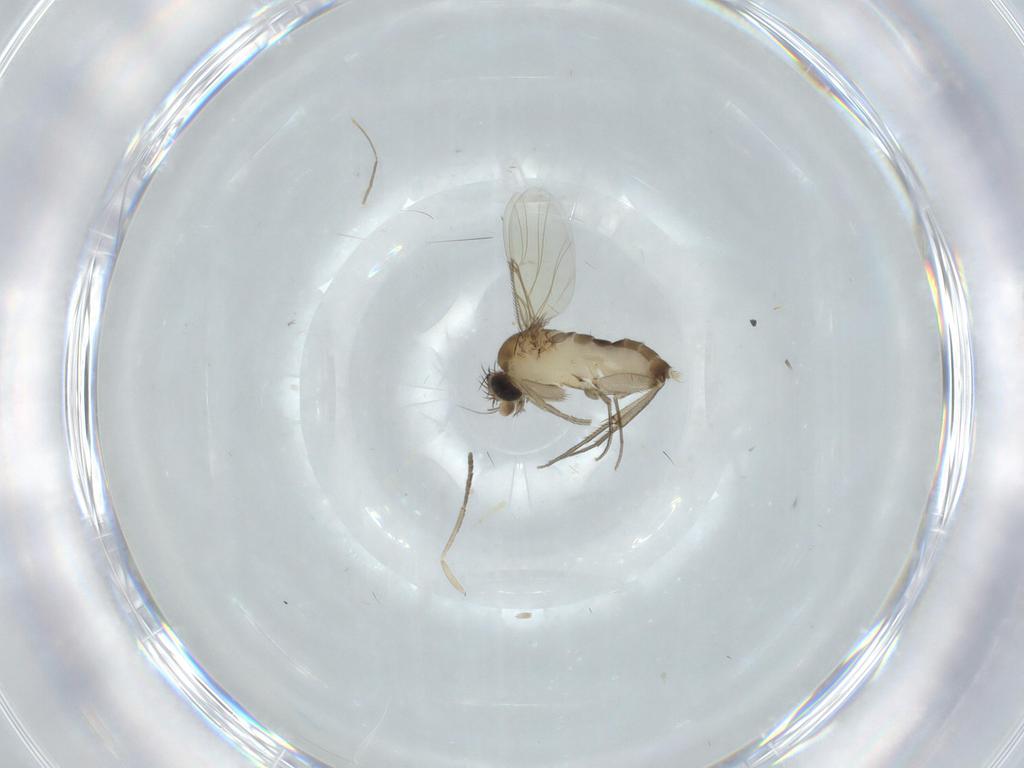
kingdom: Animalia
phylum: Arthropoda
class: Insecta
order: Diptera
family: Phoridae
